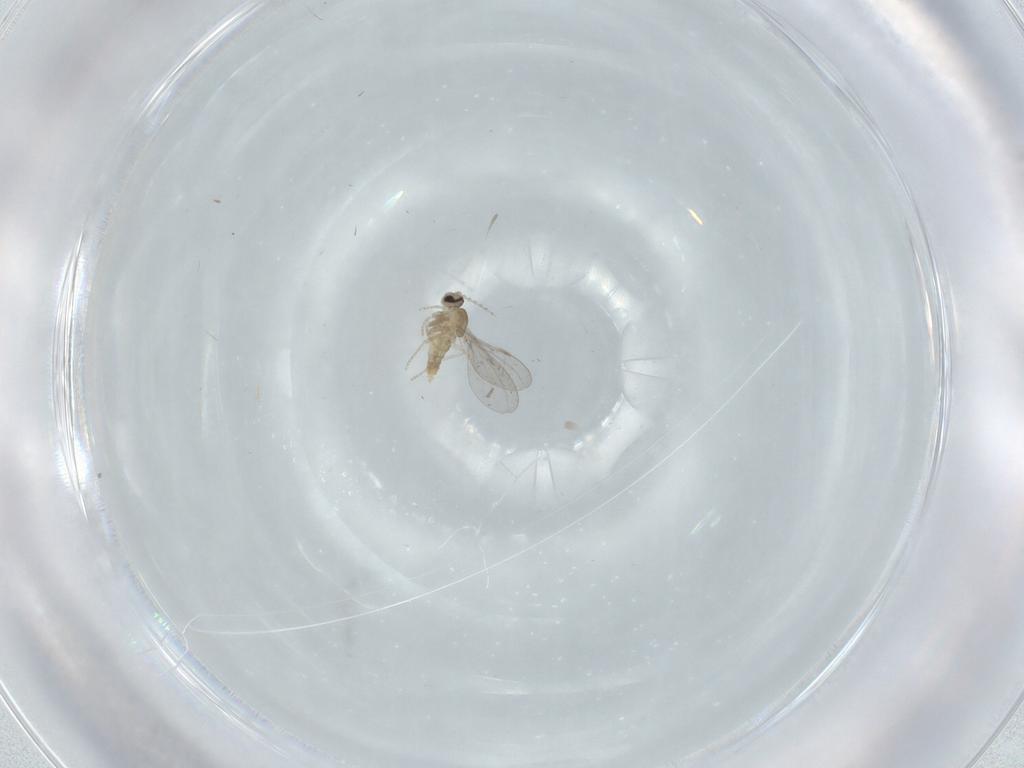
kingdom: Animalia
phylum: Arthropoda
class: Insecta
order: Diptera
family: Cecidomyiidae
